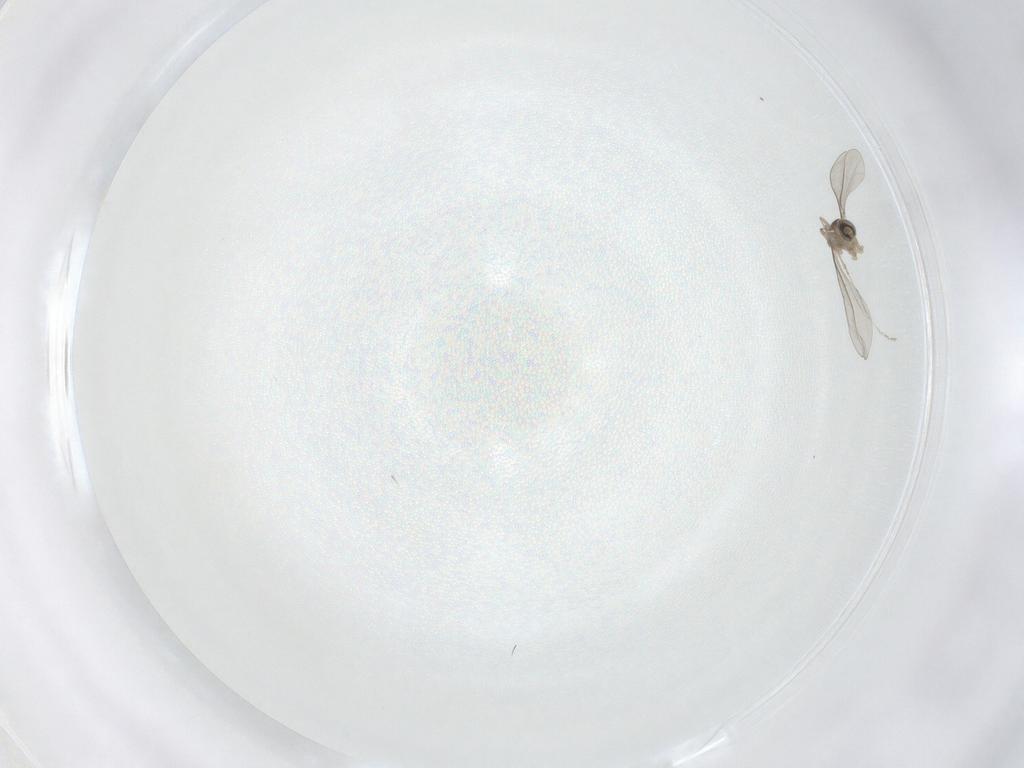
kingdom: Animalia
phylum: Arthropoda
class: Insecta
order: Diptera
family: Cecidomyiidae
